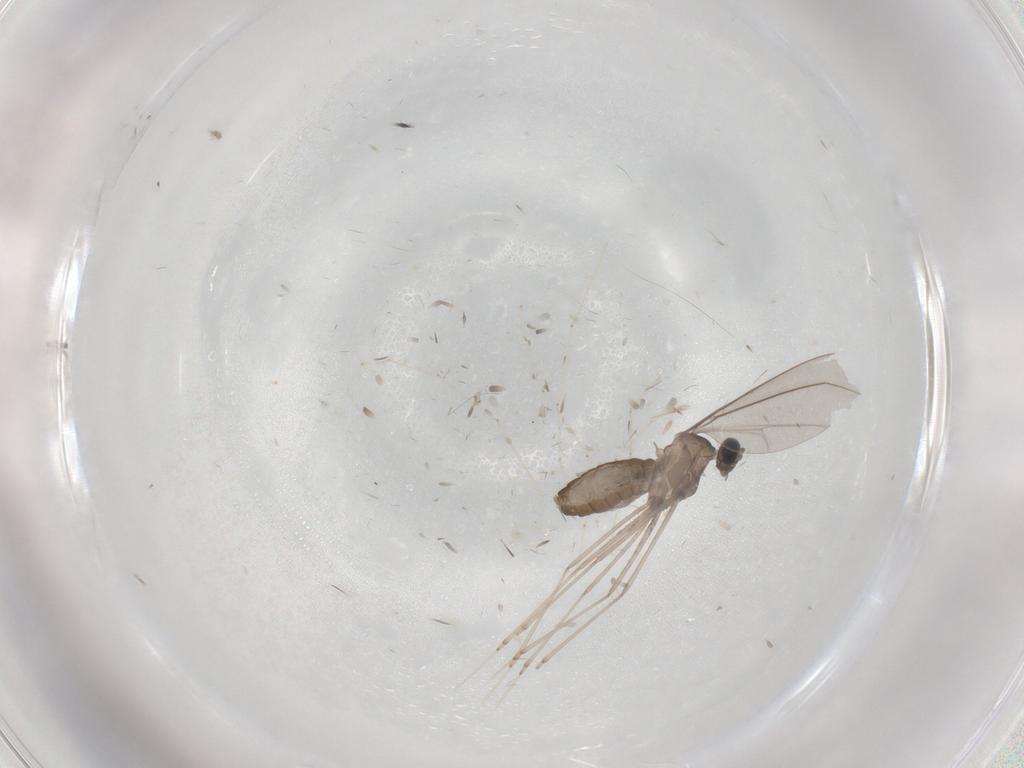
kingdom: Animalia
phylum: Arthropoda
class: Insecta
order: Diptera
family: Cecidomyiidae
